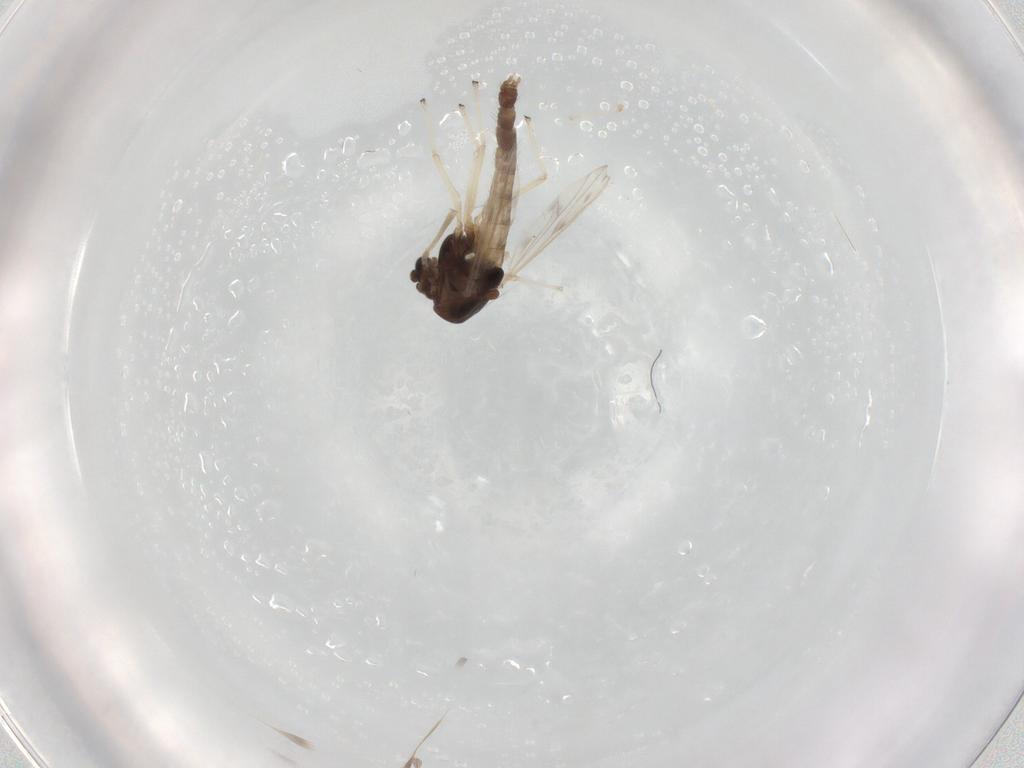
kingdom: Animalia
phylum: Arthropoda
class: Insecta
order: Diptera
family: Chironomidae
